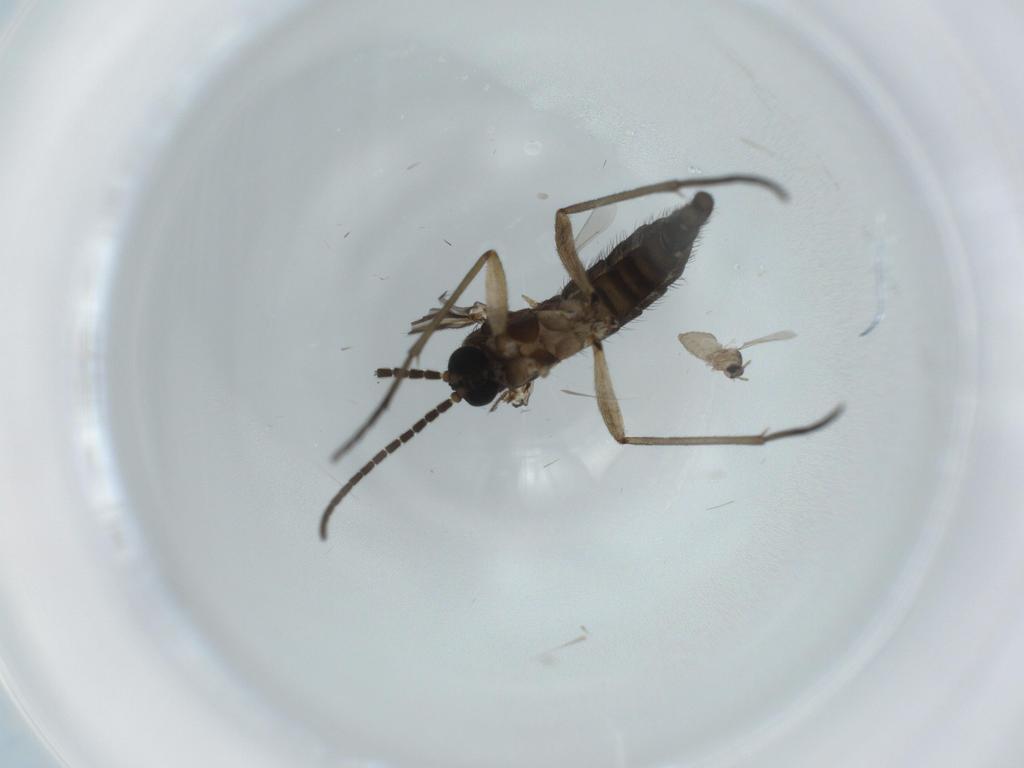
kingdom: Animalia
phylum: Arthropoda
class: Insecta
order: Diptera
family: Sciaridae
